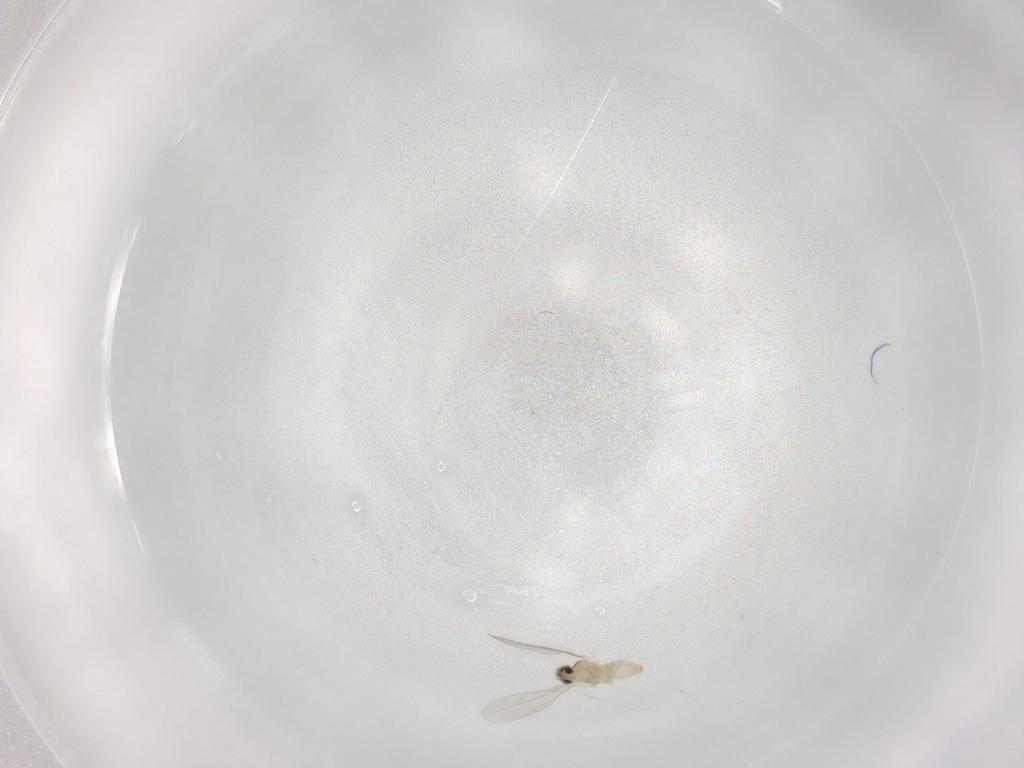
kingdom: Animalia
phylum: Arthropoda
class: Insecta
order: Diptera
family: Phoridae
